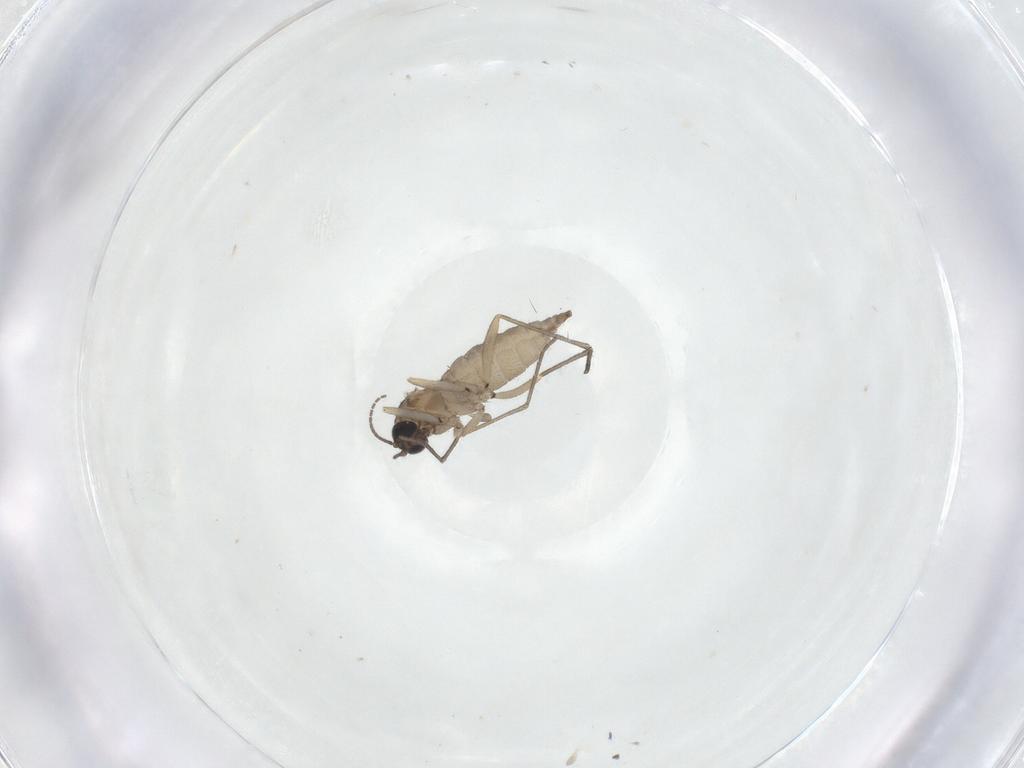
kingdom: Animalia
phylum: Arthropoda
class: Insecta
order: Diptera
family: Sciaridae
